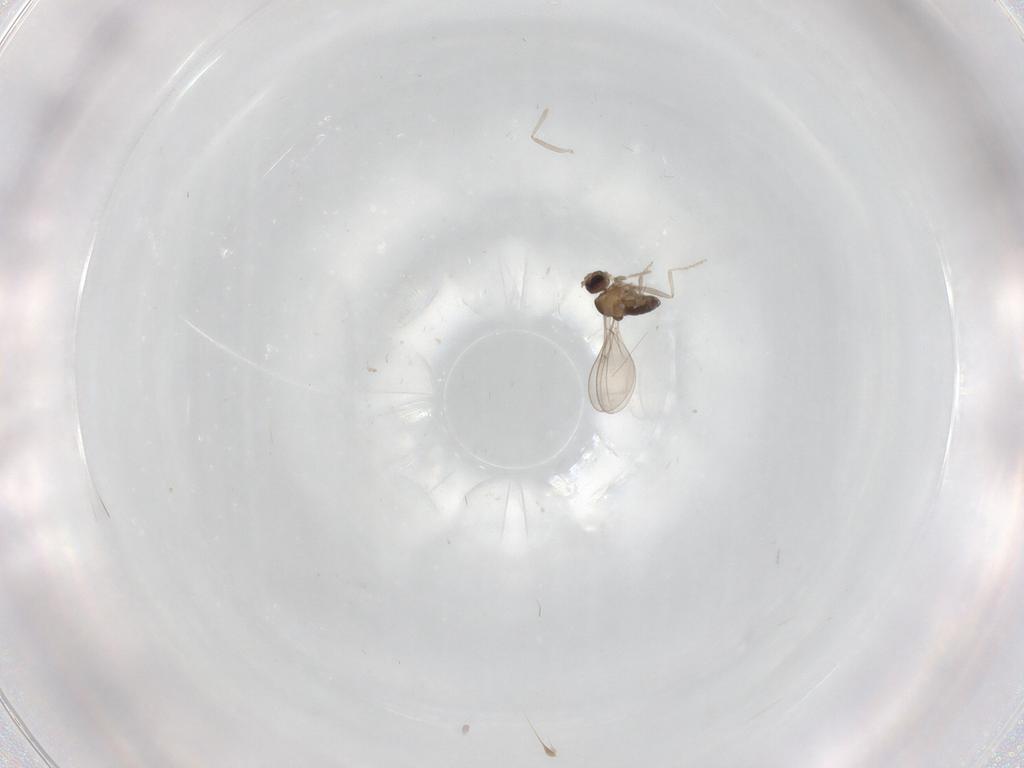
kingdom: Animalia
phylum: Arthropoda
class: Insecta
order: Diptera
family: Cecidomyiidae
